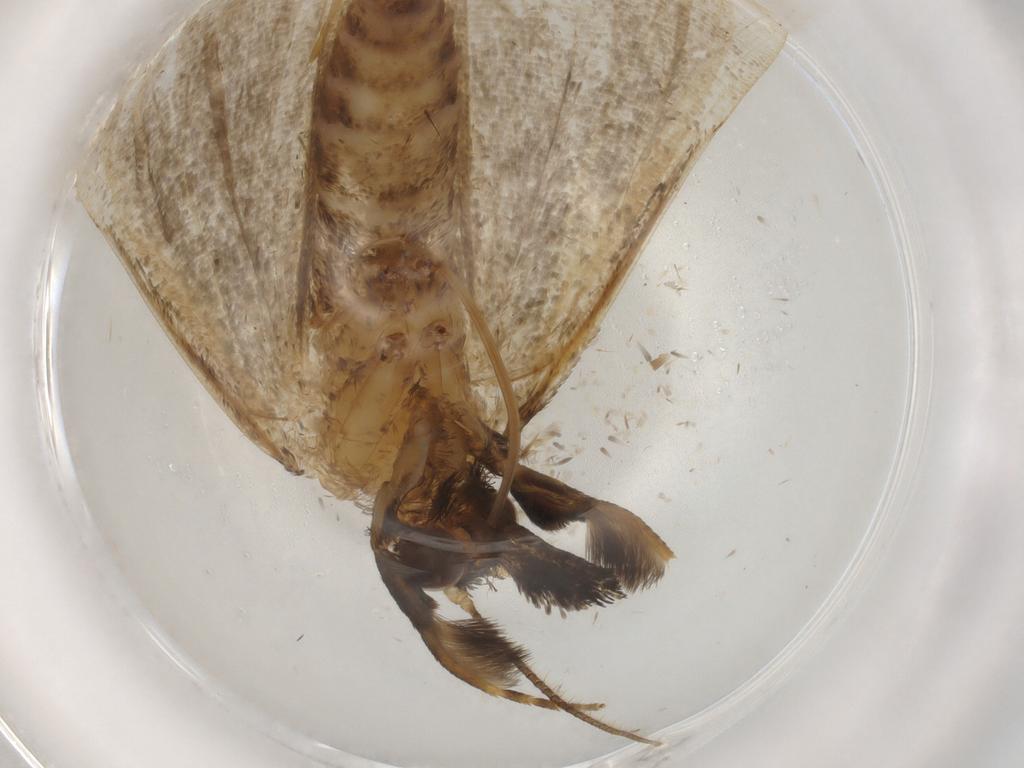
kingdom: Animalia
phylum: Arthropoda
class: Insecta
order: Lepidoptera
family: Erebidae
